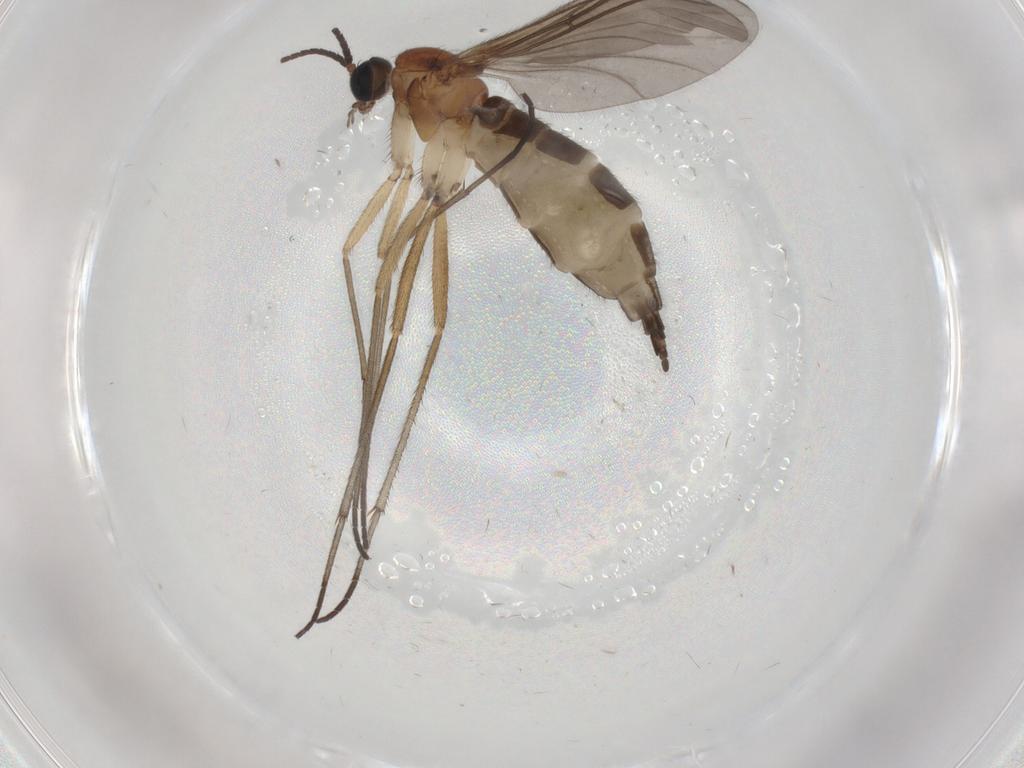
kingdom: Animalia
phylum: Arthropoda
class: Insecta
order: Diptera
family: Sciaridae
